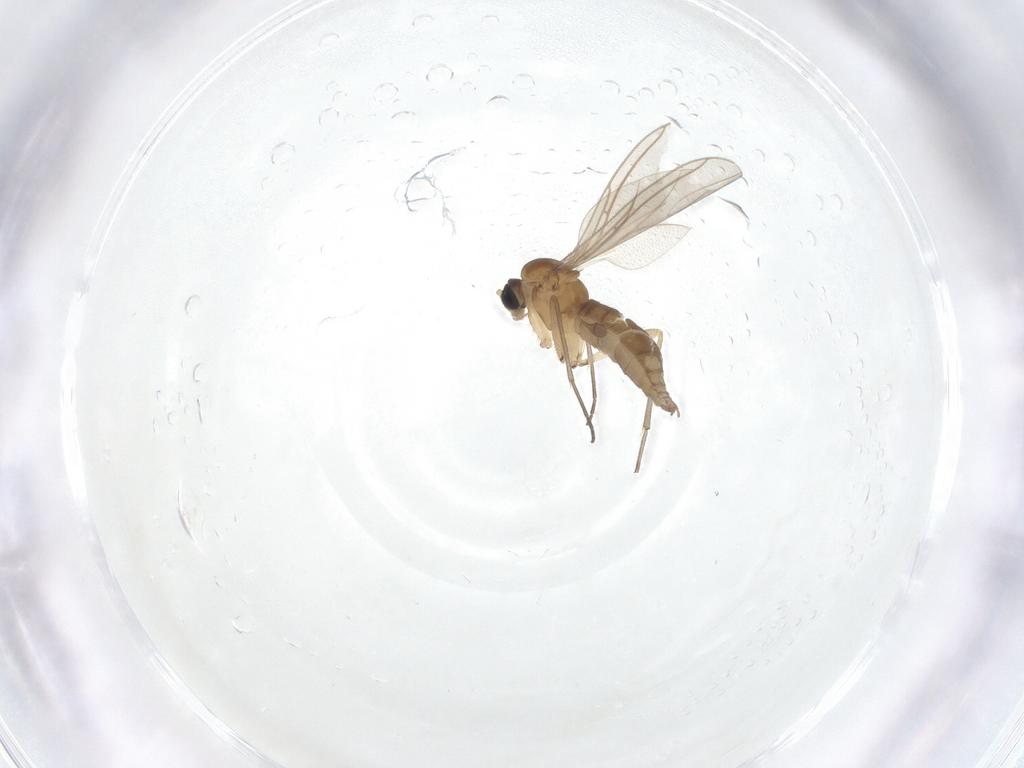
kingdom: Animalia
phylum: Arthropoda
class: Insecta
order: Diptera
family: Sciaridae
